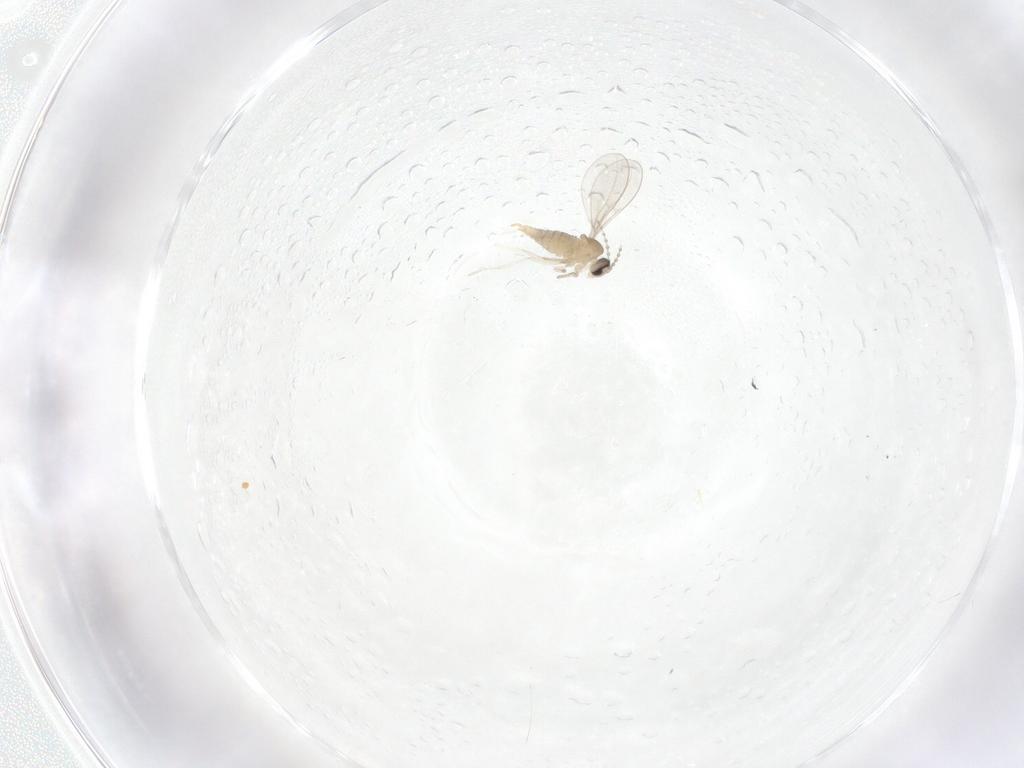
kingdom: Animalia
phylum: Arthropoda
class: Insecta
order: Diptera
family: Cecidomyiidae
